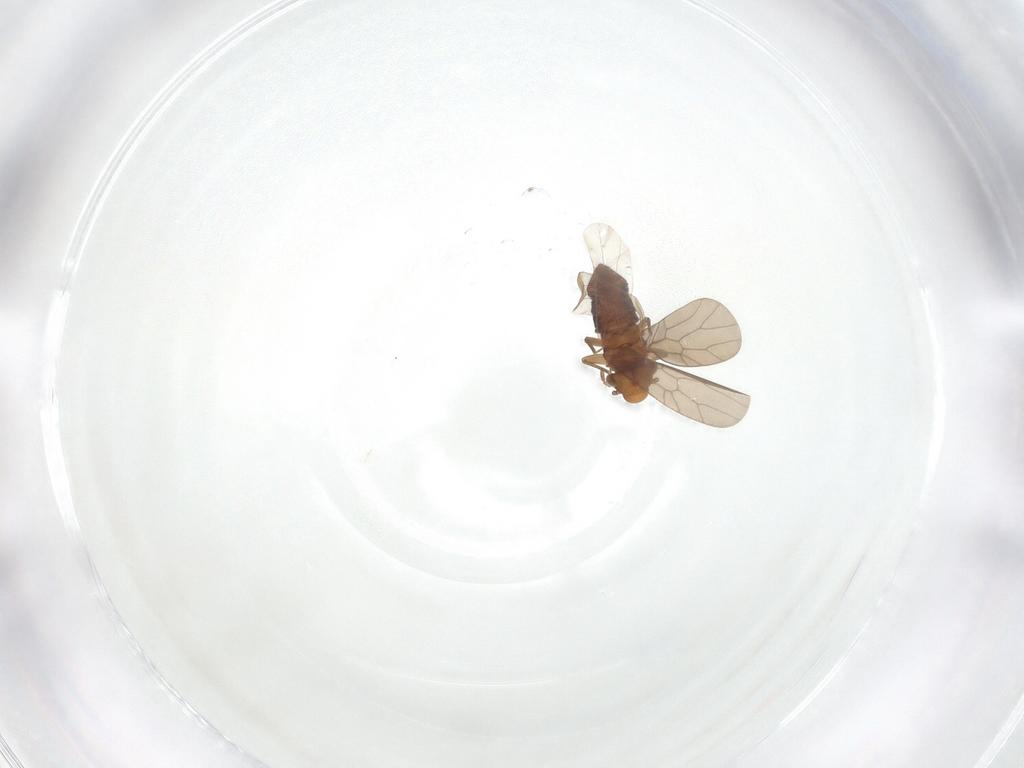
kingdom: Animalia
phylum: Arthropoda
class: Insecta
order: Psocodea
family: Lepidopsocidae
